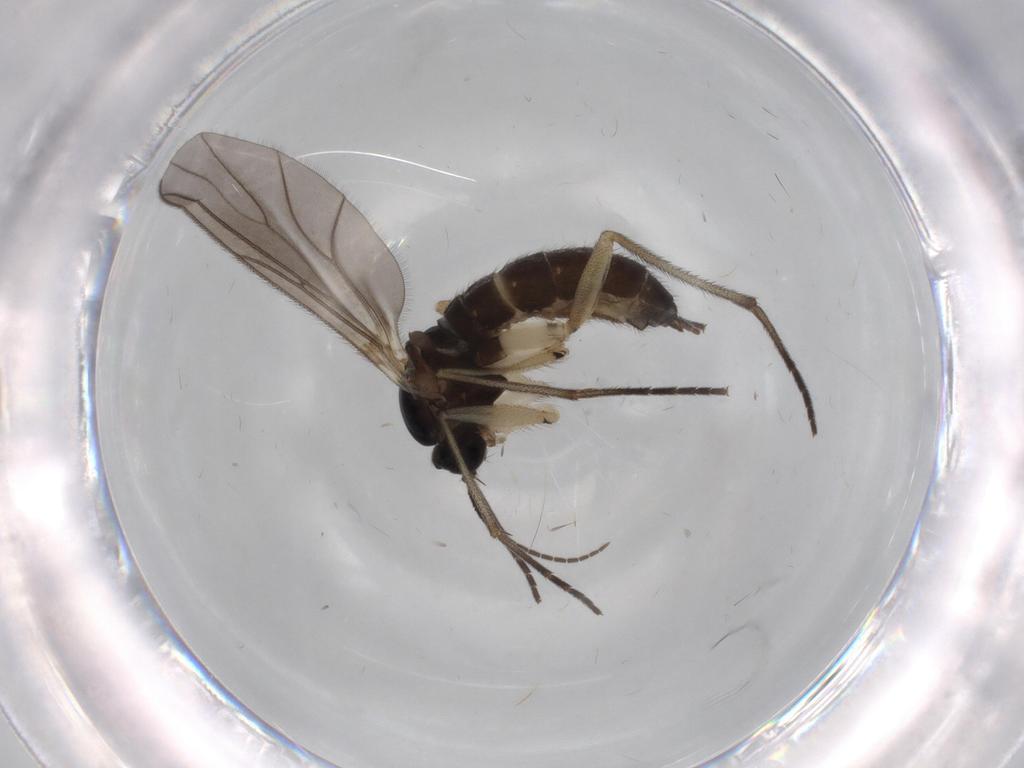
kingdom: Animalia
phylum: Arthropoda
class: Insecta
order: Diptera
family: Sciaridae
